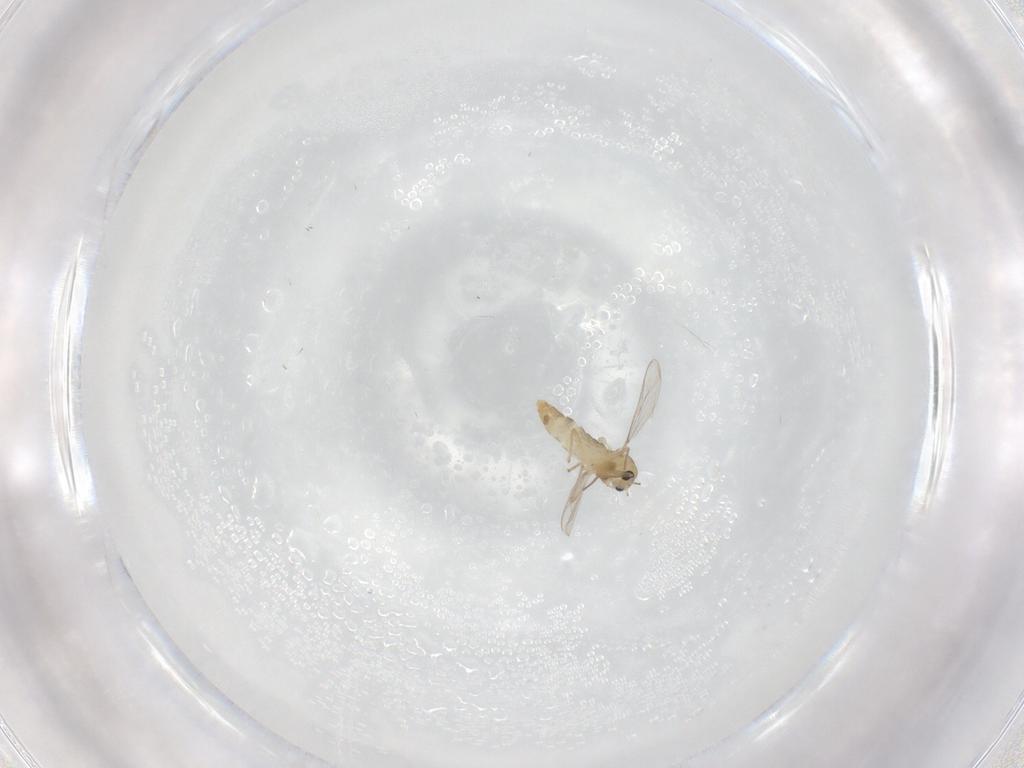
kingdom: Animalia
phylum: Arthropoda
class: Insecta
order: Diptera
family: Chironomidae
